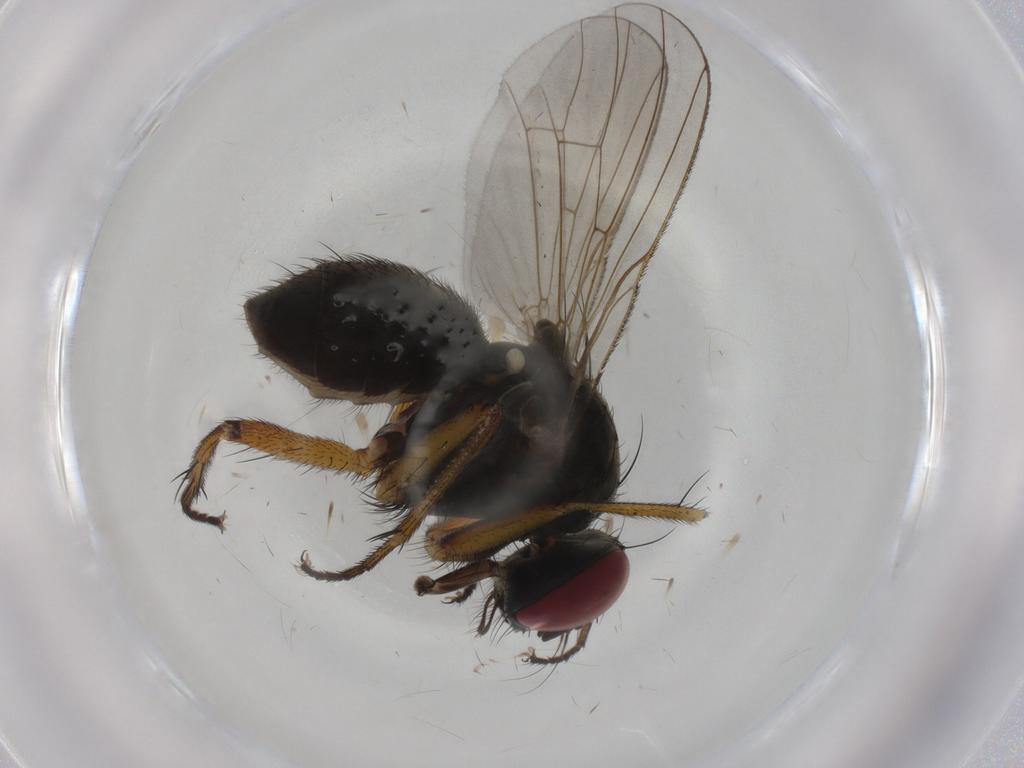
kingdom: Animalia
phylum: Arthropoda
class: Insecta
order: Diptera
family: Muscidae
